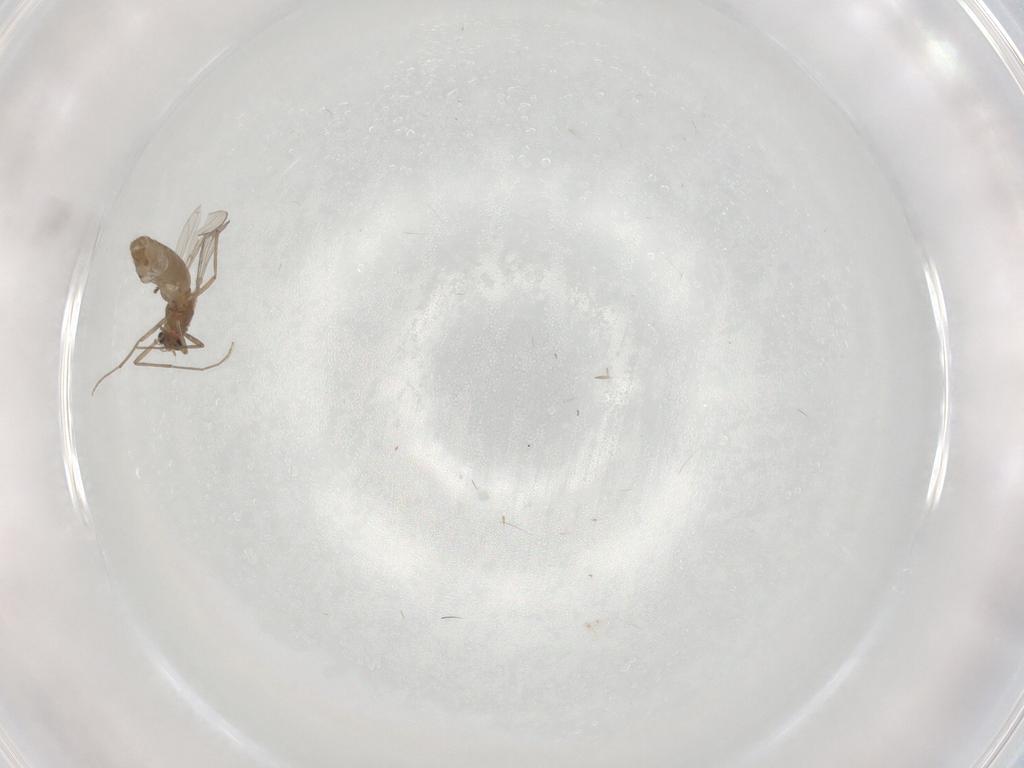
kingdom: Animalia
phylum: Arthropoda
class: Insecta
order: Diptera
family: Chironomidae
